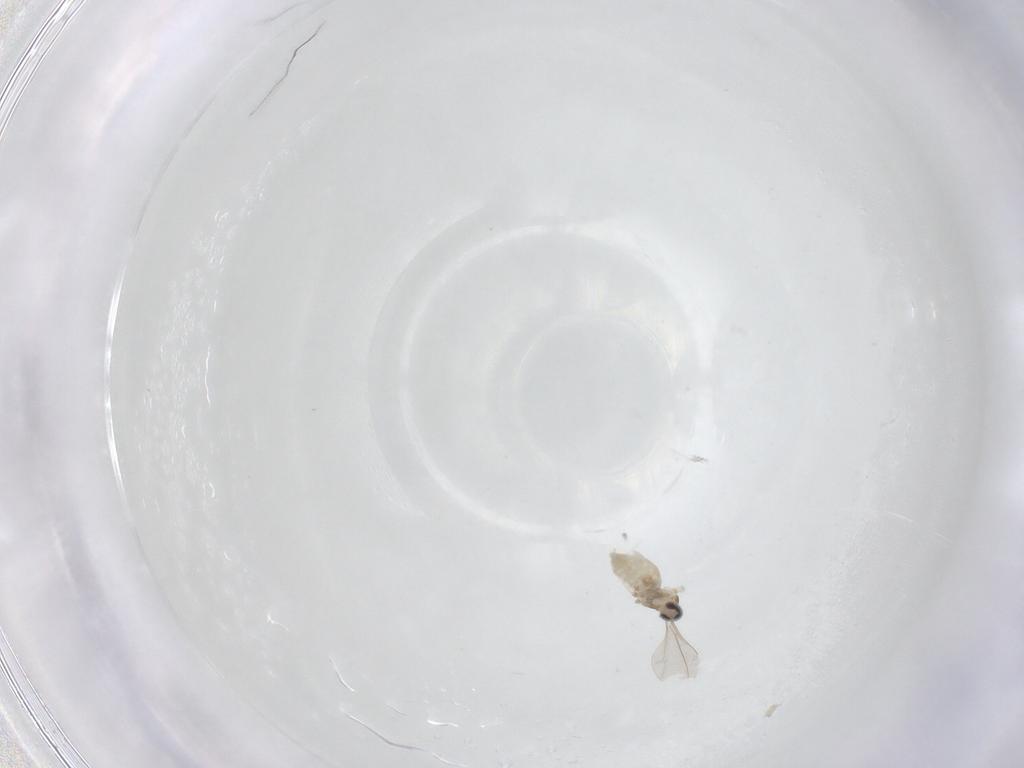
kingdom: Animalia
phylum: Arthropoda
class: Insecta
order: Diptera
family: Cecidomyiidae
